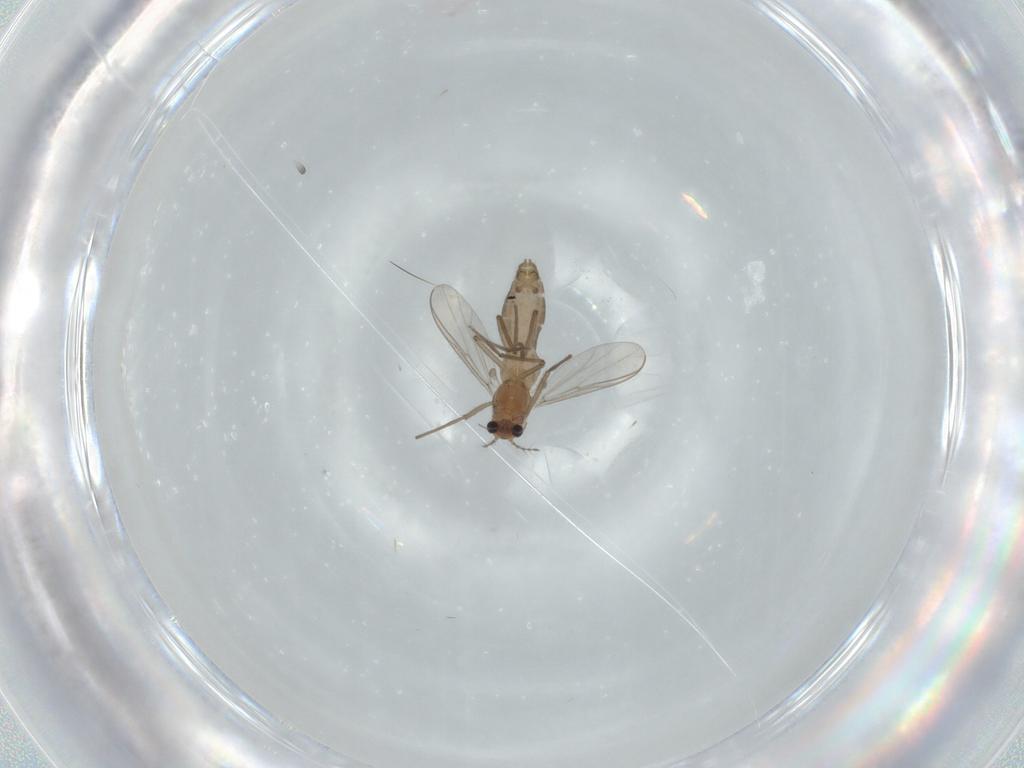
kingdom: Animalia
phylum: Arthropoda
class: Insecta
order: Diptera
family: Chironomidae
